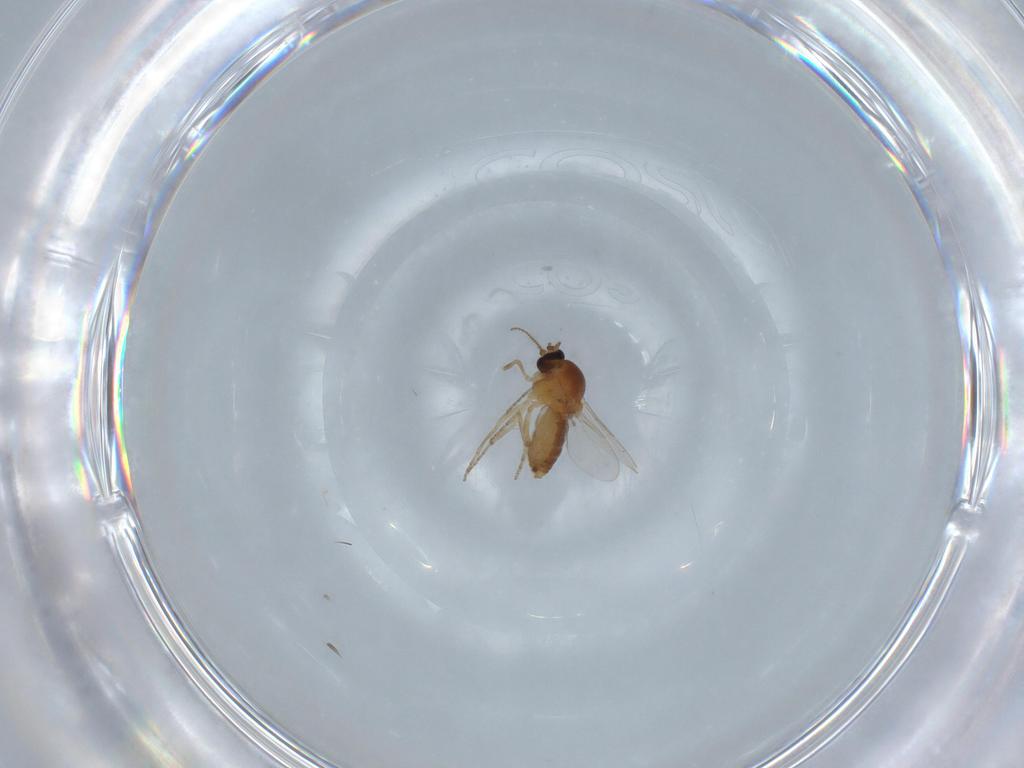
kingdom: Animalia
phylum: Arthropoda
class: Insecta
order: Diptera
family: Ceratopogonidae
